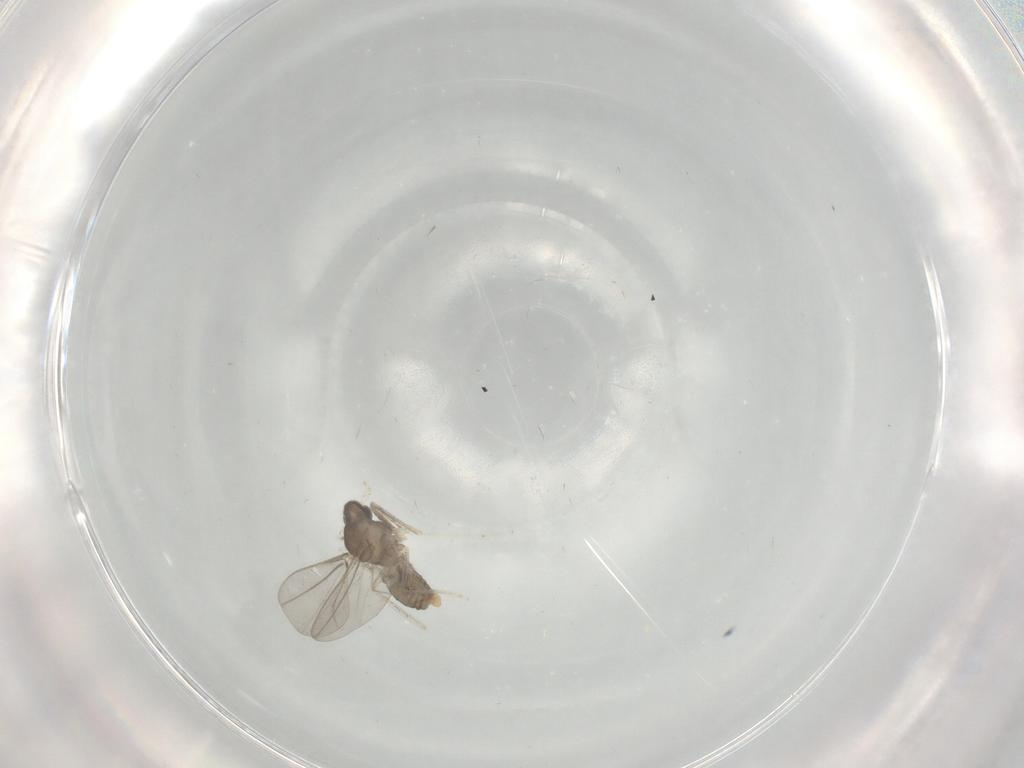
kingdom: Animalia
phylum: Arthropoda
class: Insecta
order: Diptera
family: Cecidomyiidae
